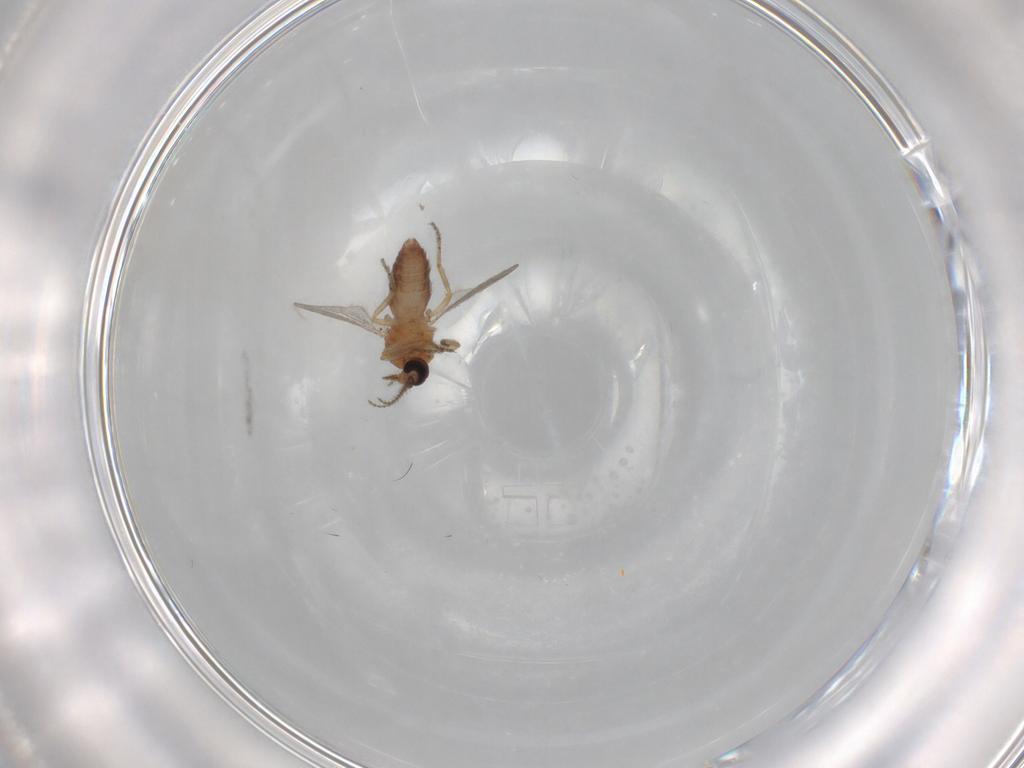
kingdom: Animalia
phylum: Arthropoda
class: Insecta
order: Diptera
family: Ceratopogonidae
